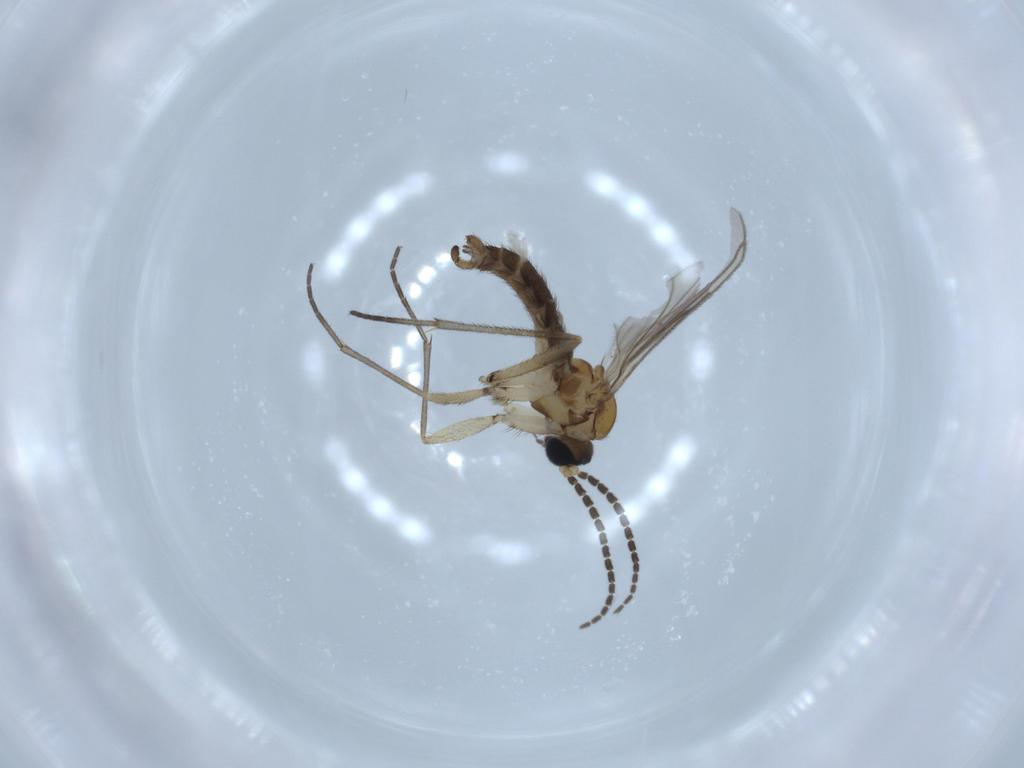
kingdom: Animalia
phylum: Arthropoda
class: Insecta
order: Diptera
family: Sciaridae
